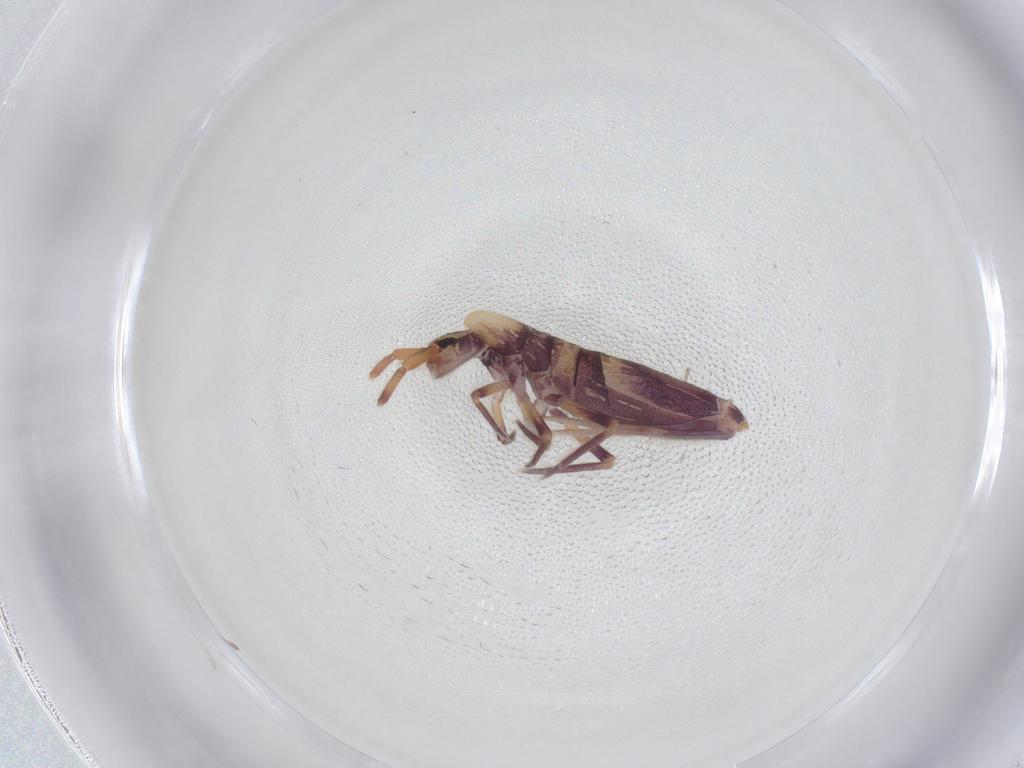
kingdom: Animalia
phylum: Arthropoda
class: Collembola
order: Entomobryomorpha
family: Entomobryidae
